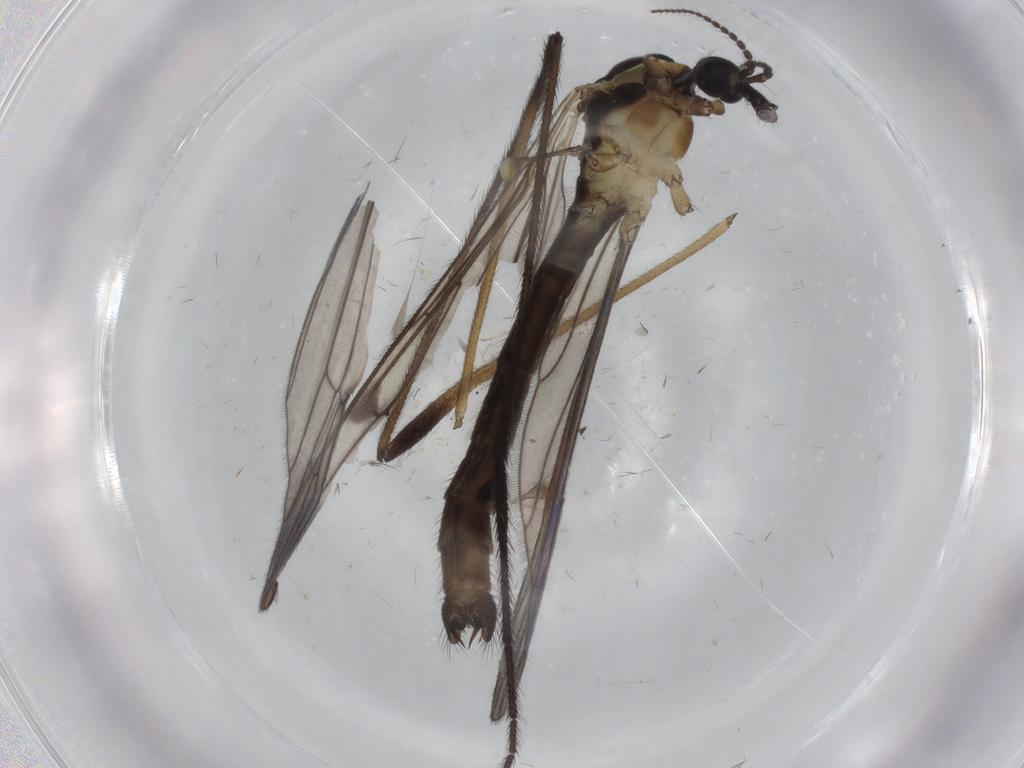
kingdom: Animalia
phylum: Arthropoda
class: Insecta
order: Diptera
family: Limoniidae
